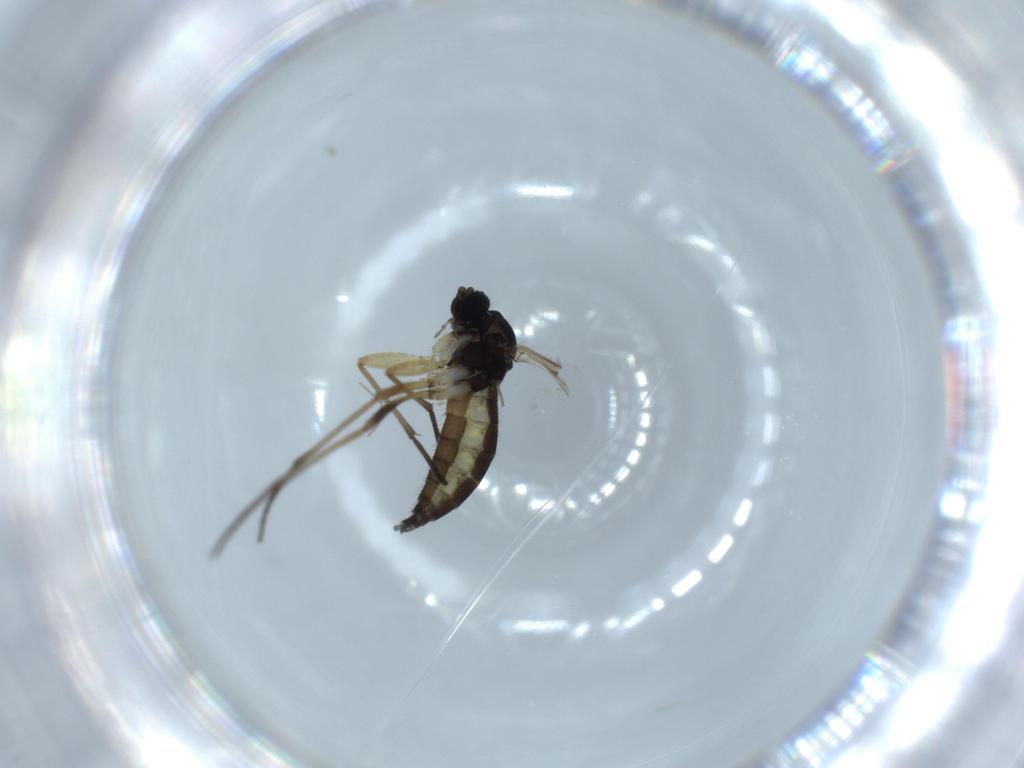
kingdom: Animalia
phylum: Arthropoda
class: Insecta
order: Diptera
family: Sciaridae
